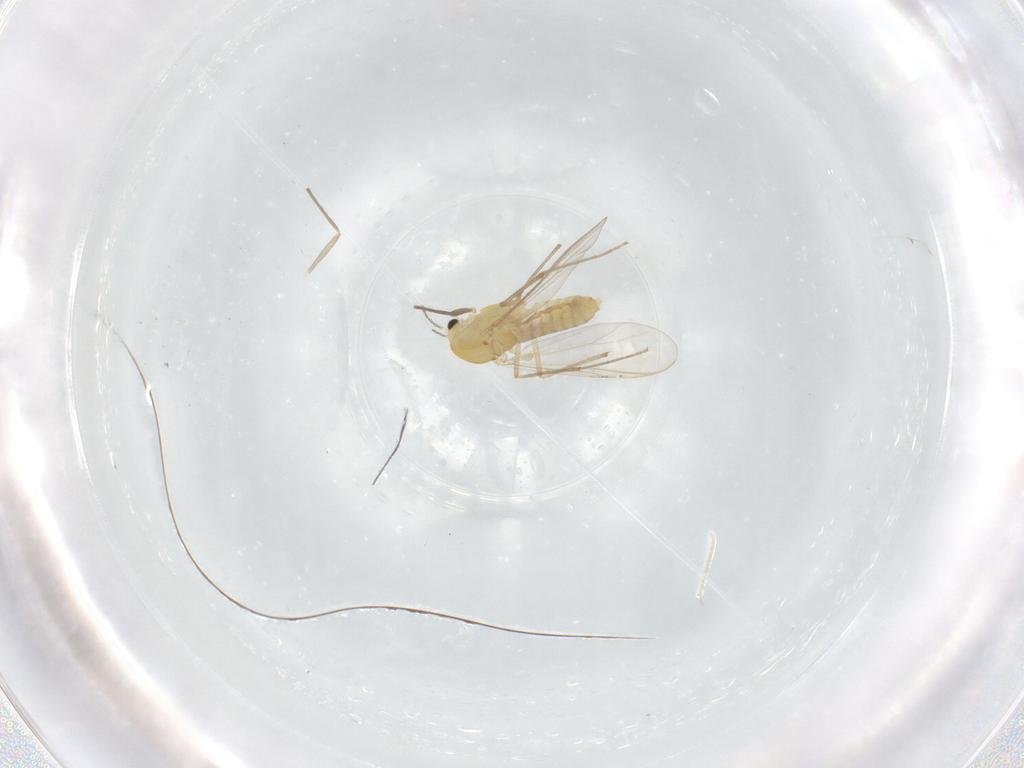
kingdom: Animalia
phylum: Arthropoda
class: Insecta
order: Diptera
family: Chironomidae
